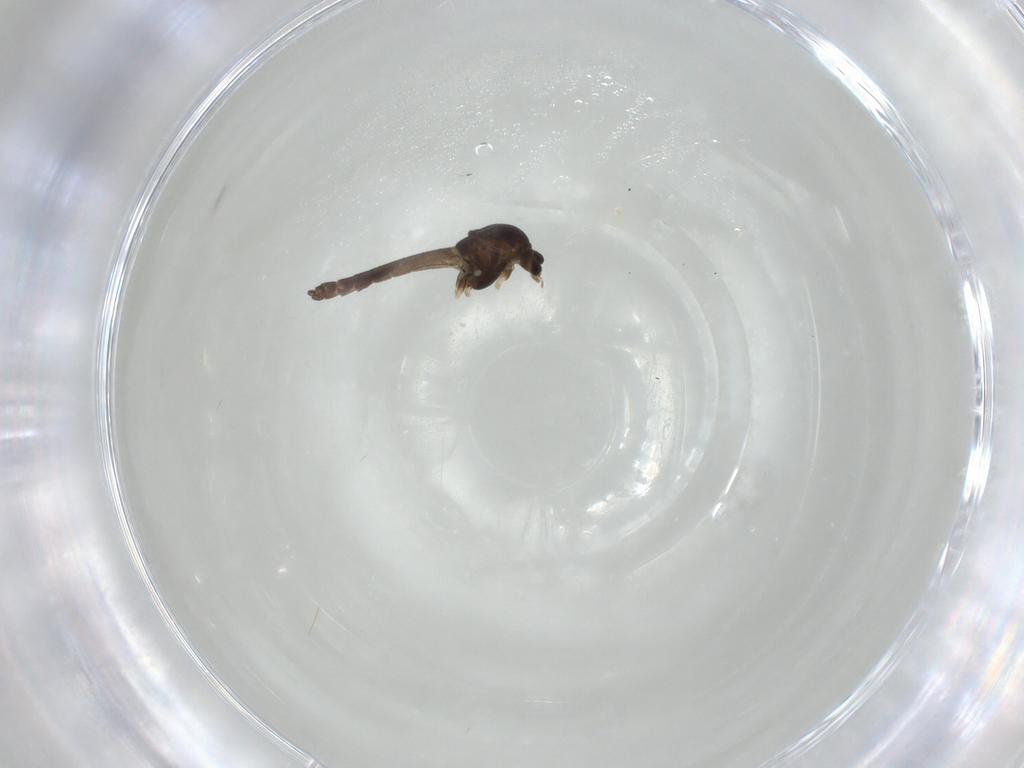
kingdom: Animalia
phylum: Arthropoda
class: Insecta
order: Diptera
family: Chironomidae
